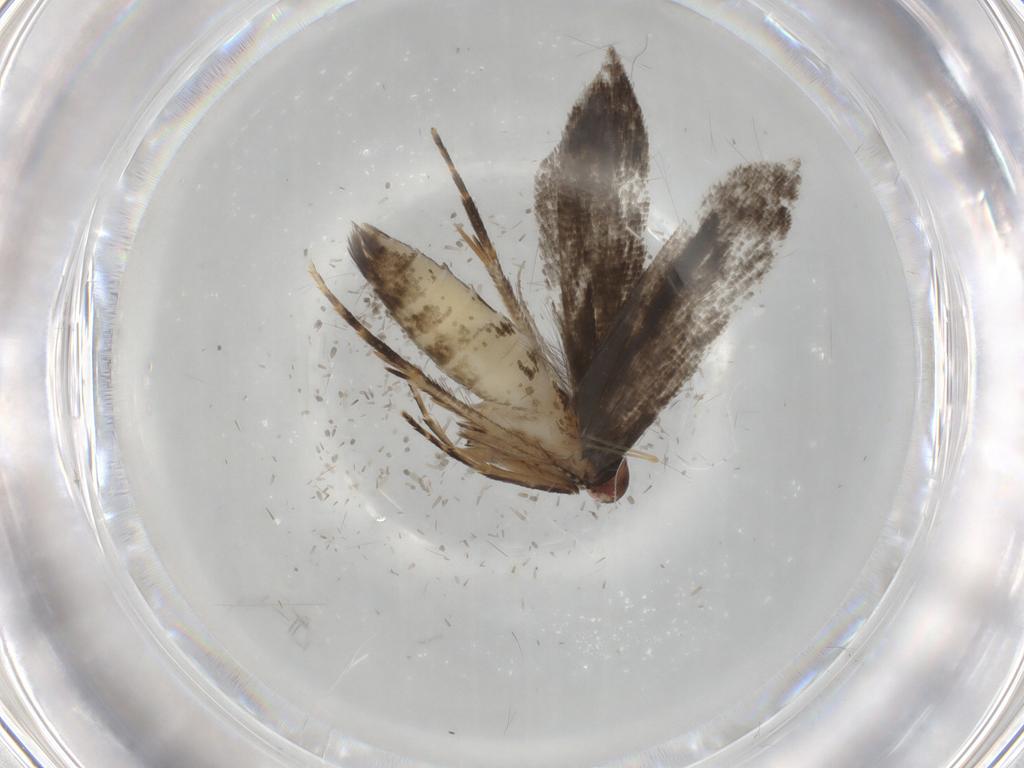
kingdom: Animalia
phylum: Arthropoda
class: Insecta
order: Lepidoptera
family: Gelechiidae
